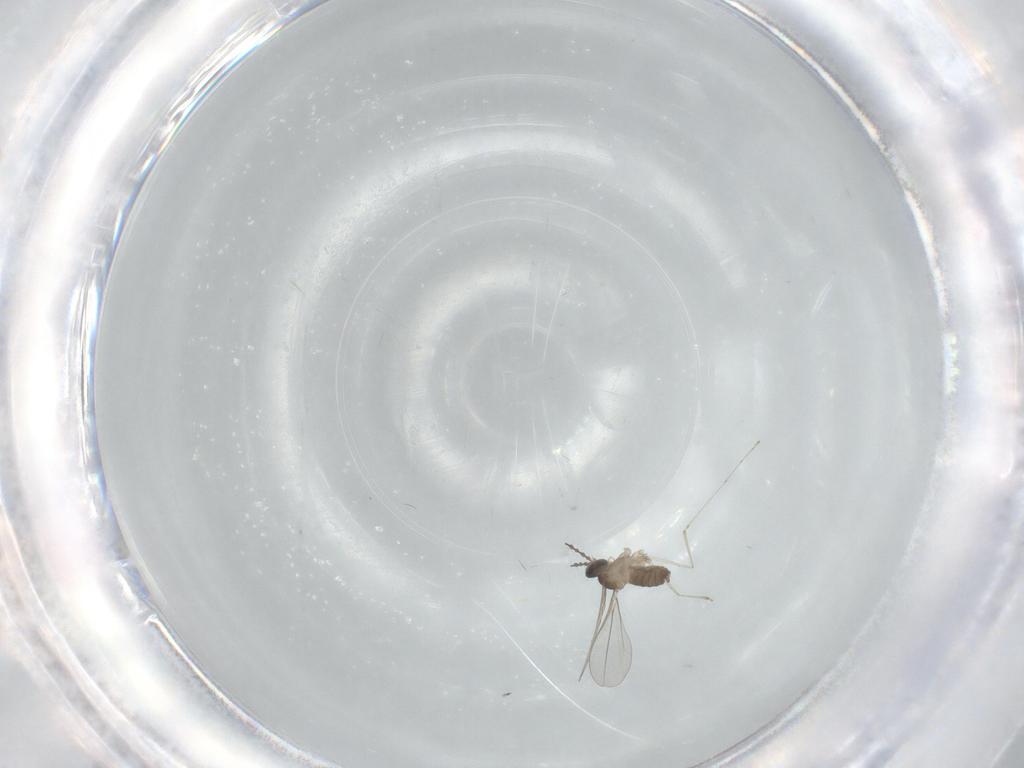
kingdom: Animalia
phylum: Arthropoda
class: Insecta
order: Diptera
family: Cecidomyiidae
